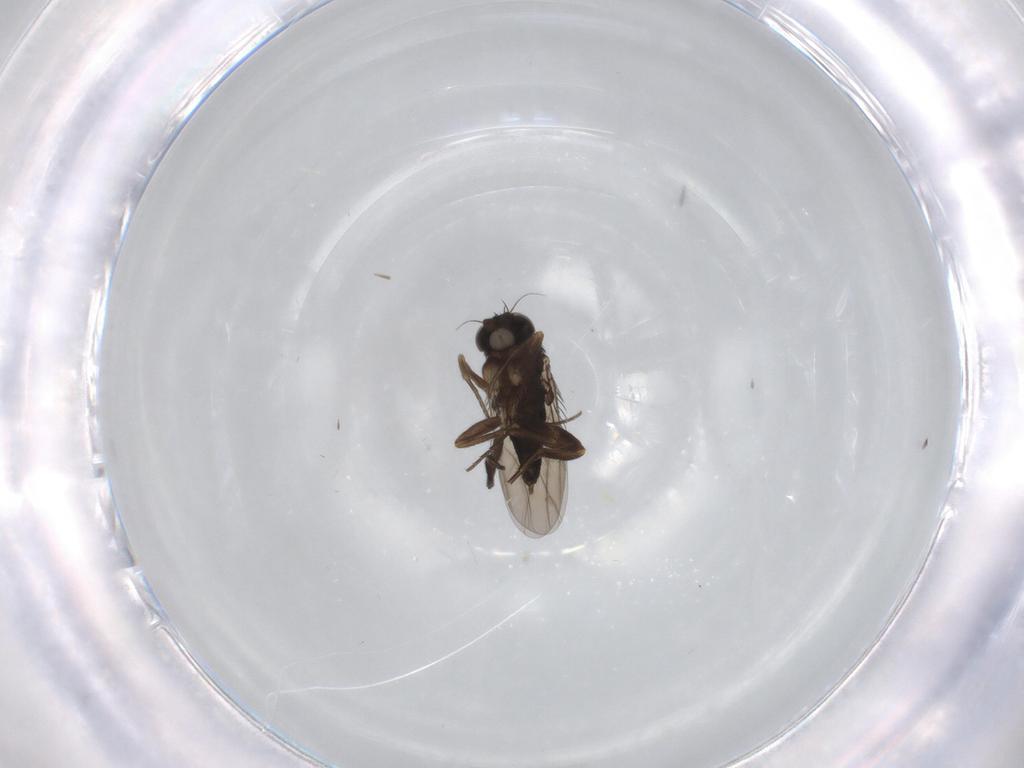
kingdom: Animalia
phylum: Arthropoda
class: Insecta
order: Diptera
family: Phoridae
